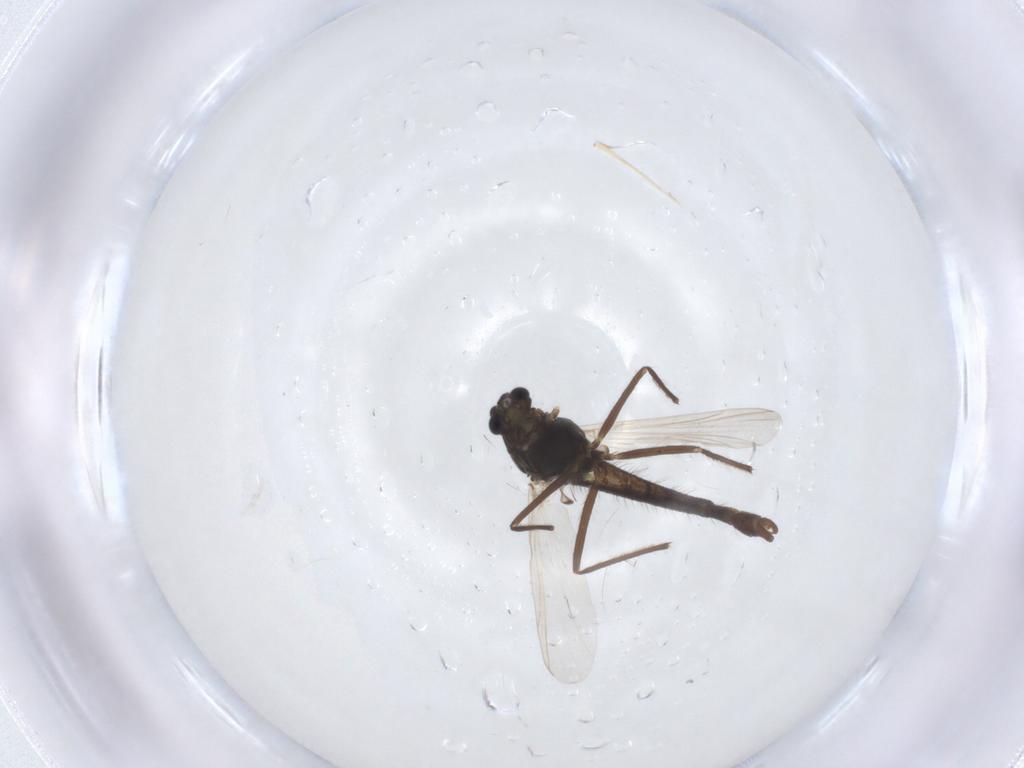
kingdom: Animalia
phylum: Arthropoda
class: Insecta
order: Diptera
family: Chironomidae
